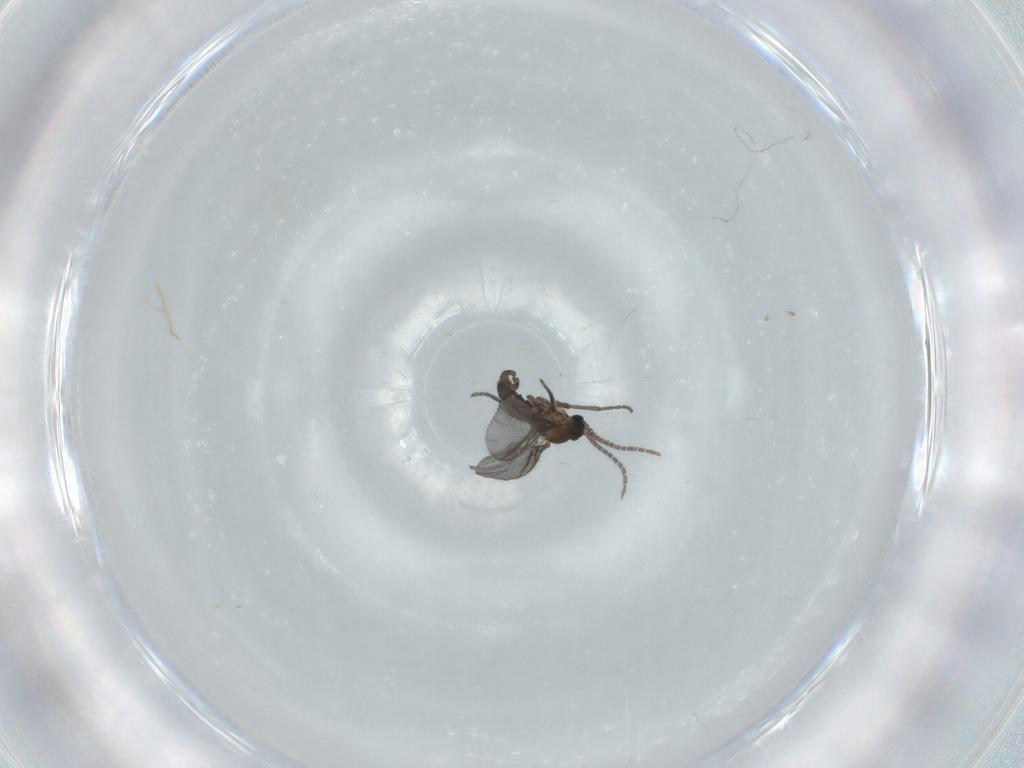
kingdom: Animalia
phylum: Arthropoda
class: Insecta
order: Diptera
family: Sciaridae
